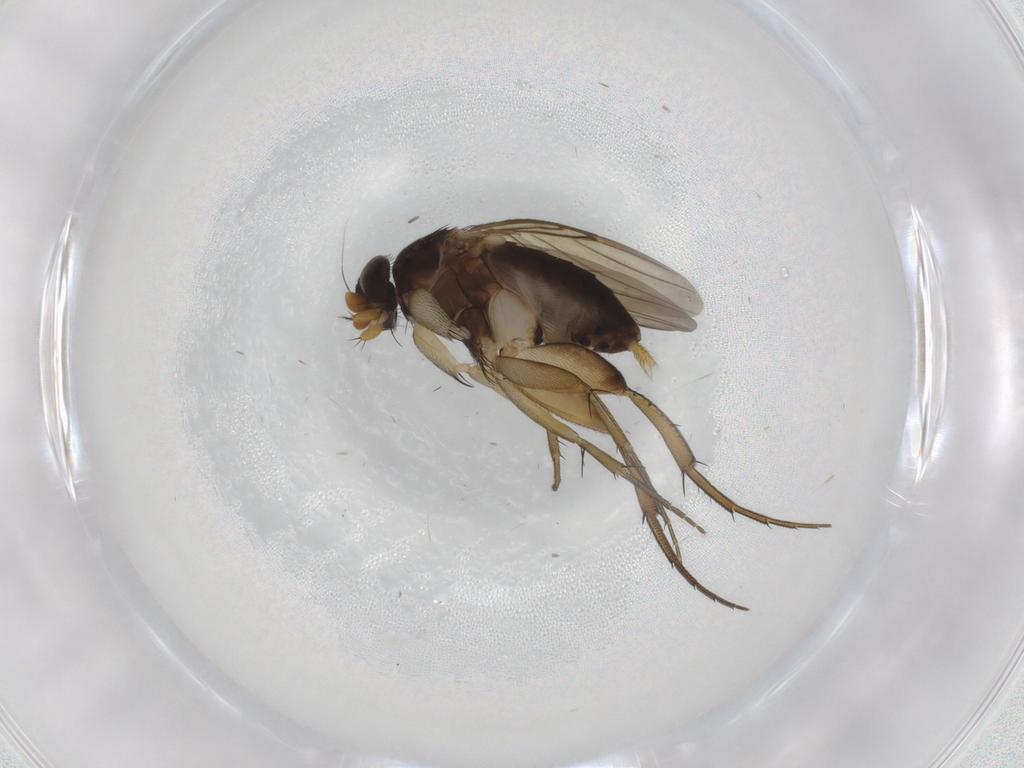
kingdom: Animalia
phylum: Arthropoda
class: Insecta
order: Diptera
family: Phoridae
